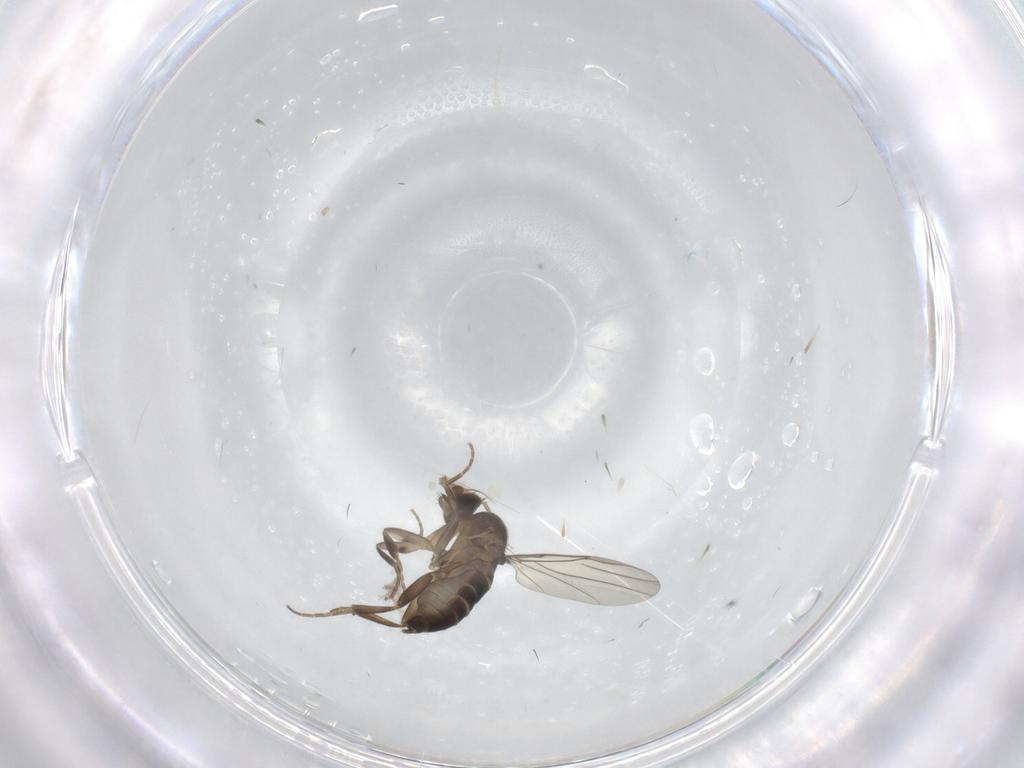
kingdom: Animalia
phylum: Arthropoda
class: Insecta
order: Diptera
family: Phoridae
